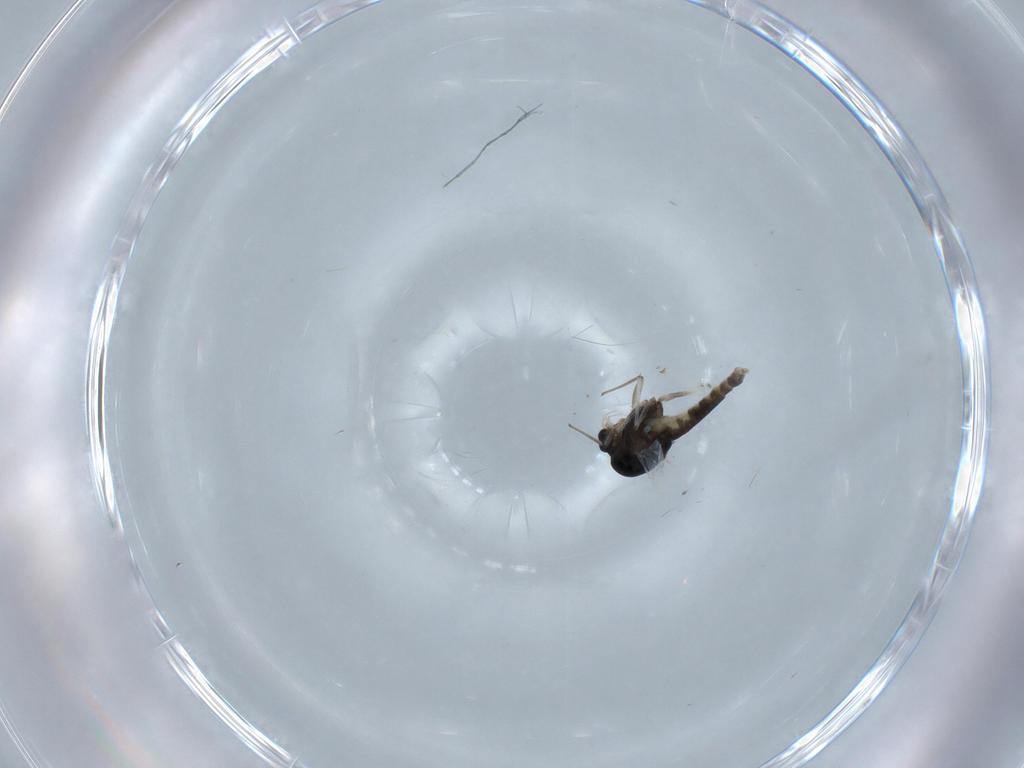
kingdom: Animalia
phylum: Arthropoda
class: Insecta
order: Diptera
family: Chironomidae
